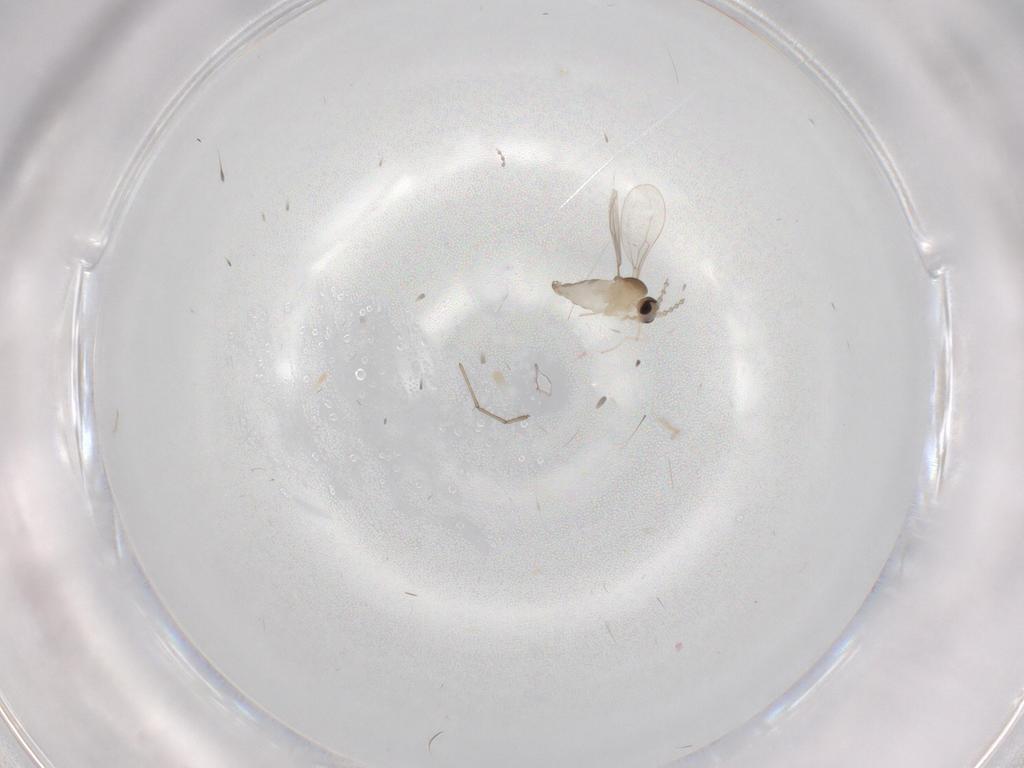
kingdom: Animalia
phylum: Arthropoda
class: Insecta
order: Diptera
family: Cecidomyiidae
